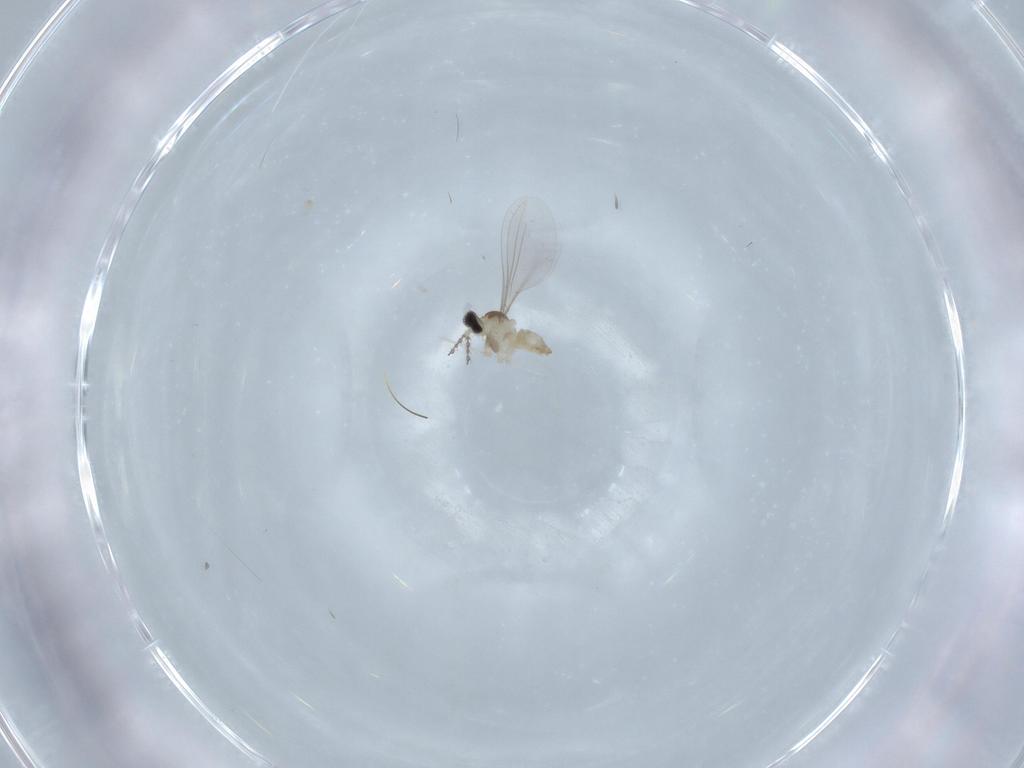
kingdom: Animalia
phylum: Arthropoda
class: Insecta
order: Diptera
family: Cecidomyiidae
